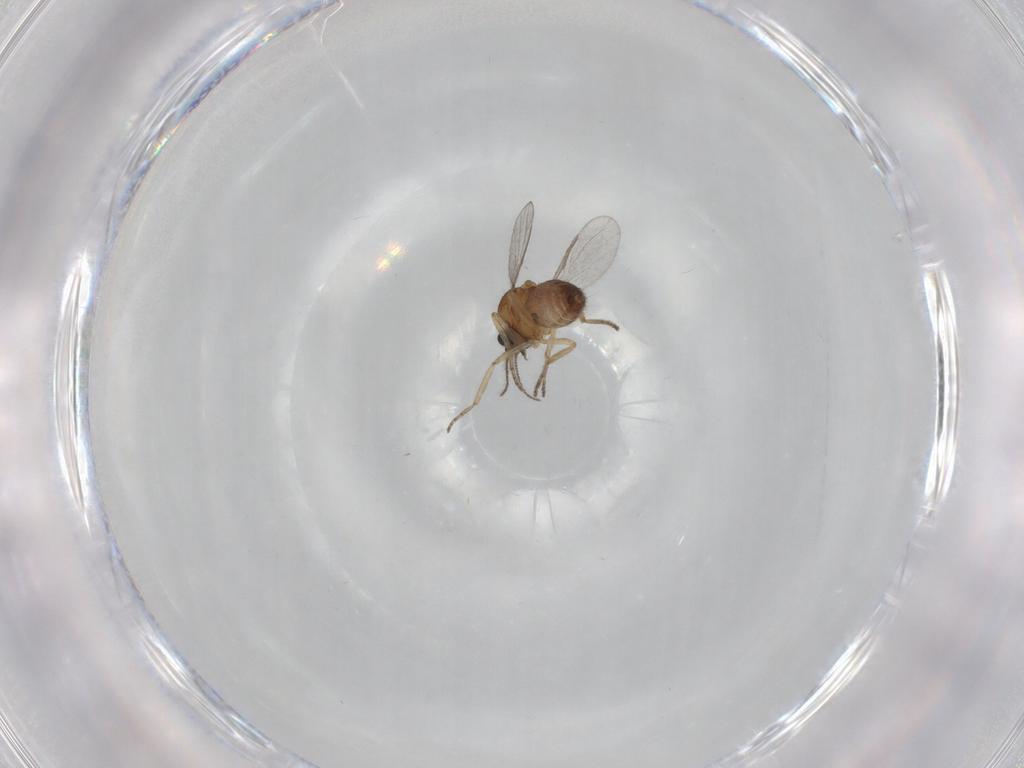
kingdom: Animalia
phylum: Arthropoda
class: Insecta
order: Diptera
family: Ceratopogonidae
